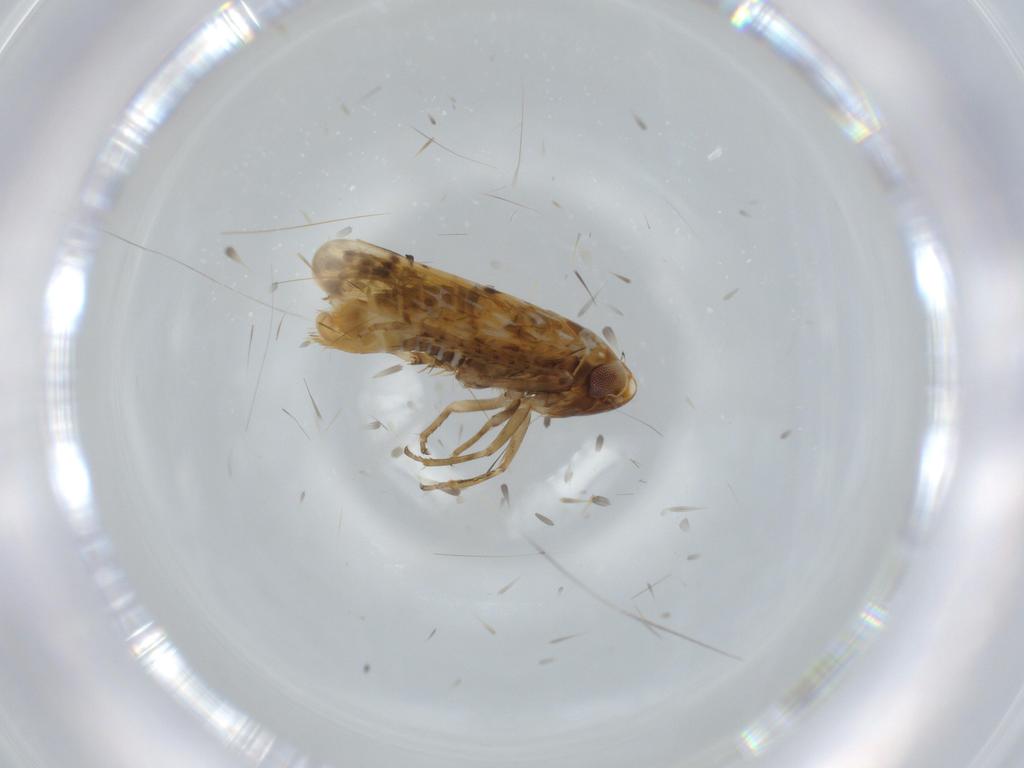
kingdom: Animalia
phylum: Arthropoda
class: Insecta
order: Hemiptera
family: Cicadellidae
